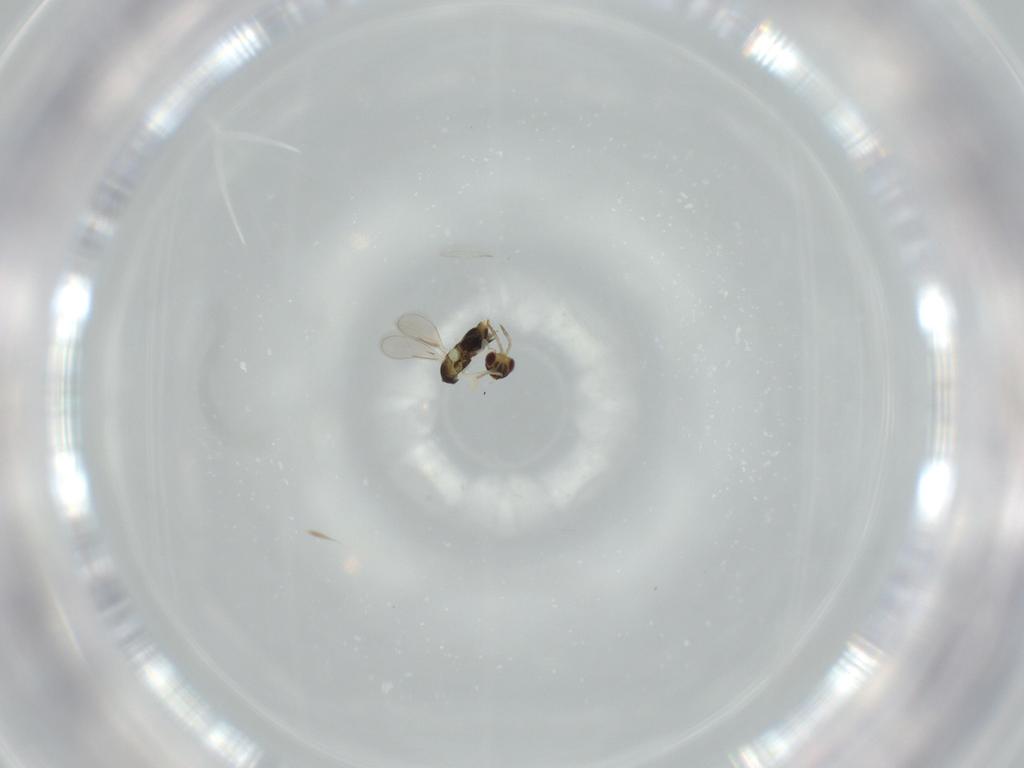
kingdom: Animalia
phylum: Arthropoda
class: Insecta
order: Hymenoptera
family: Aphelinidae
